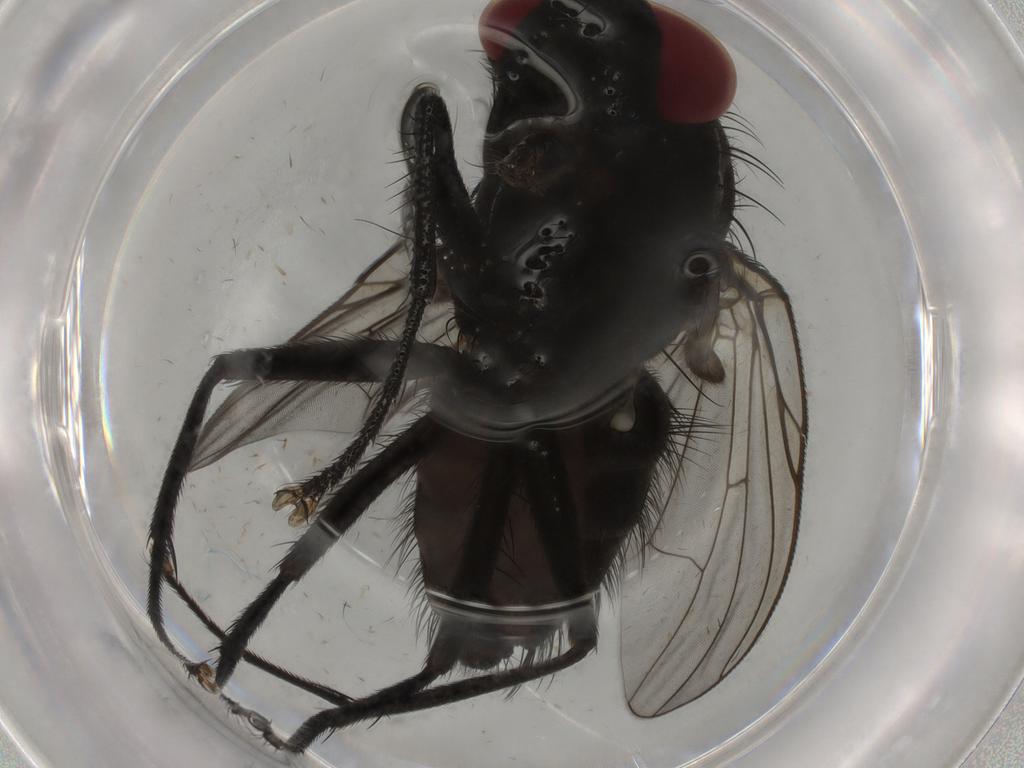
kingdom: Animalia
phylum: Arthropoda
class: Insecta
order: Diptera
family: Muscidae
